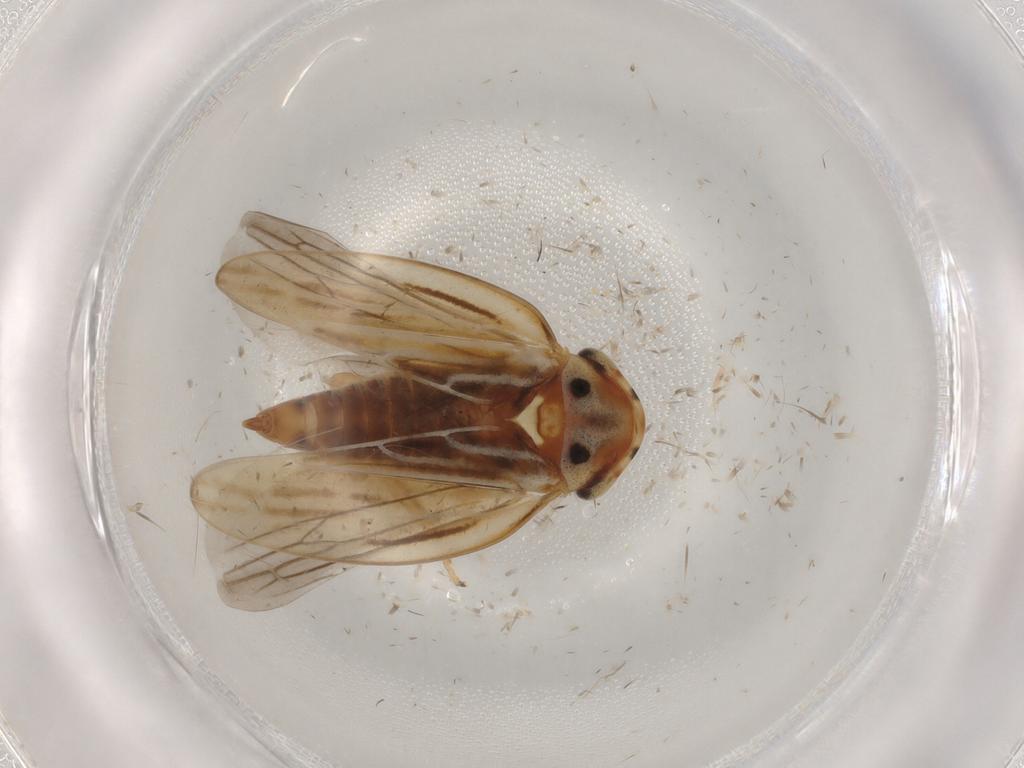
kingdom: Animalia
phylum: Arthropoda
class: Insecta
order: Hemiptera
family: Cicadellidae
